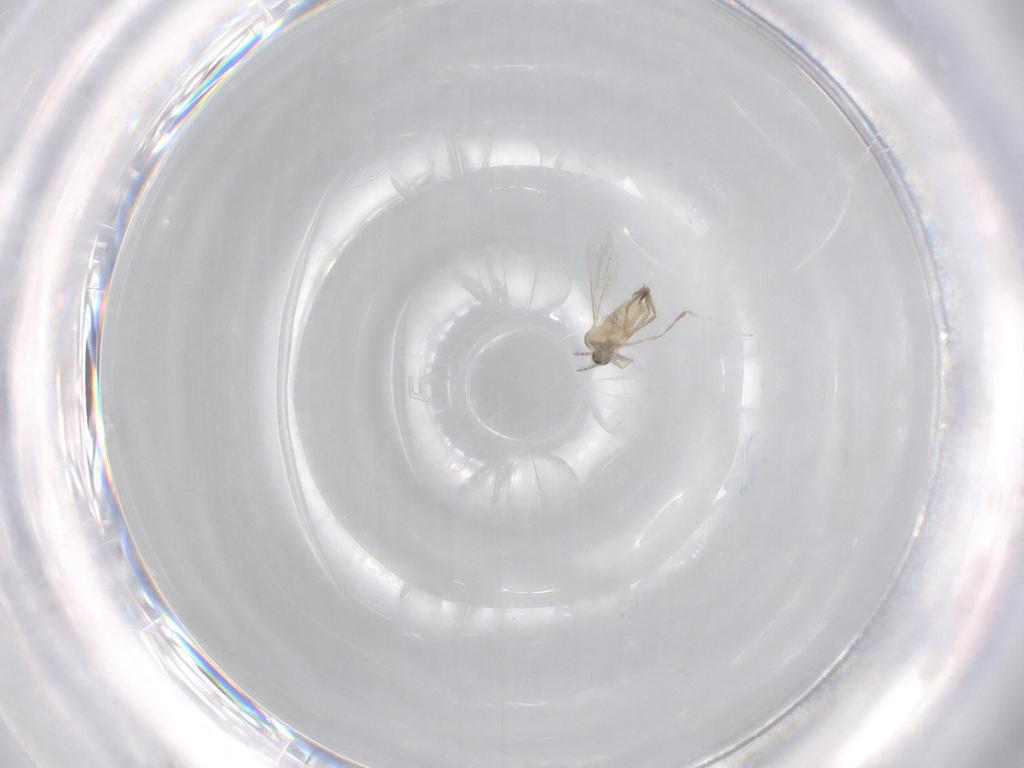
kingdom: Animalia
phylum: Arthropoda
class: Insecta
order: Diptera
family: Cecidomyiidae
